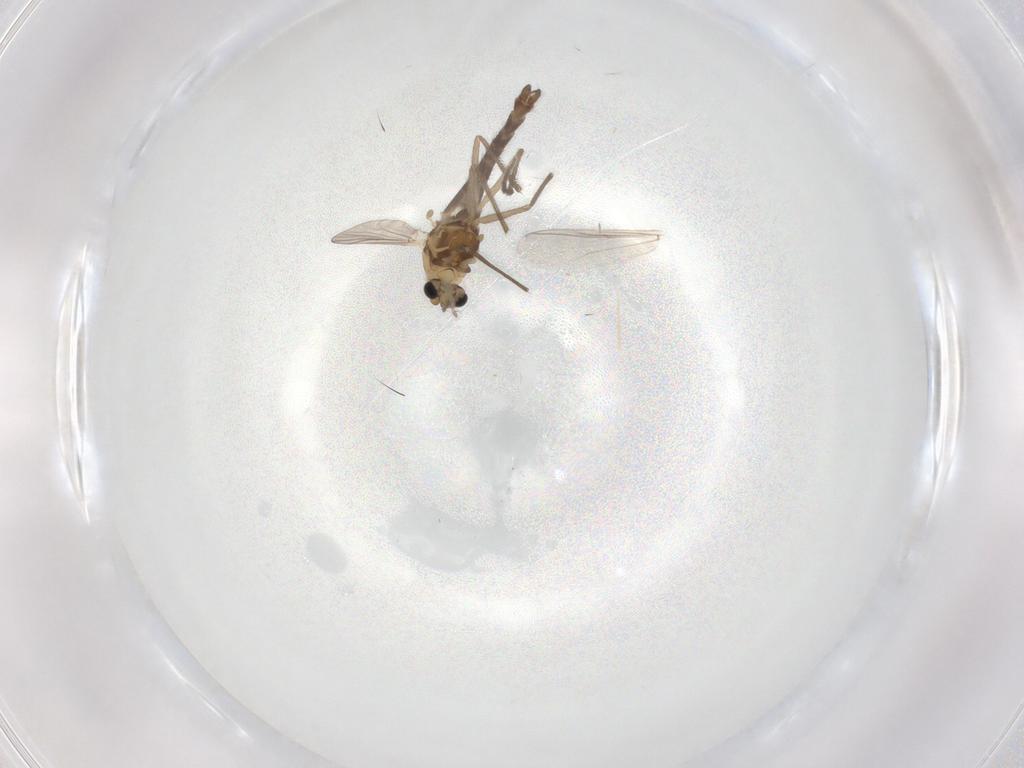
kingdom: Animalia
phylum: Arthropoda
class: Insecta
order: Diptera
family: Chironomidae
